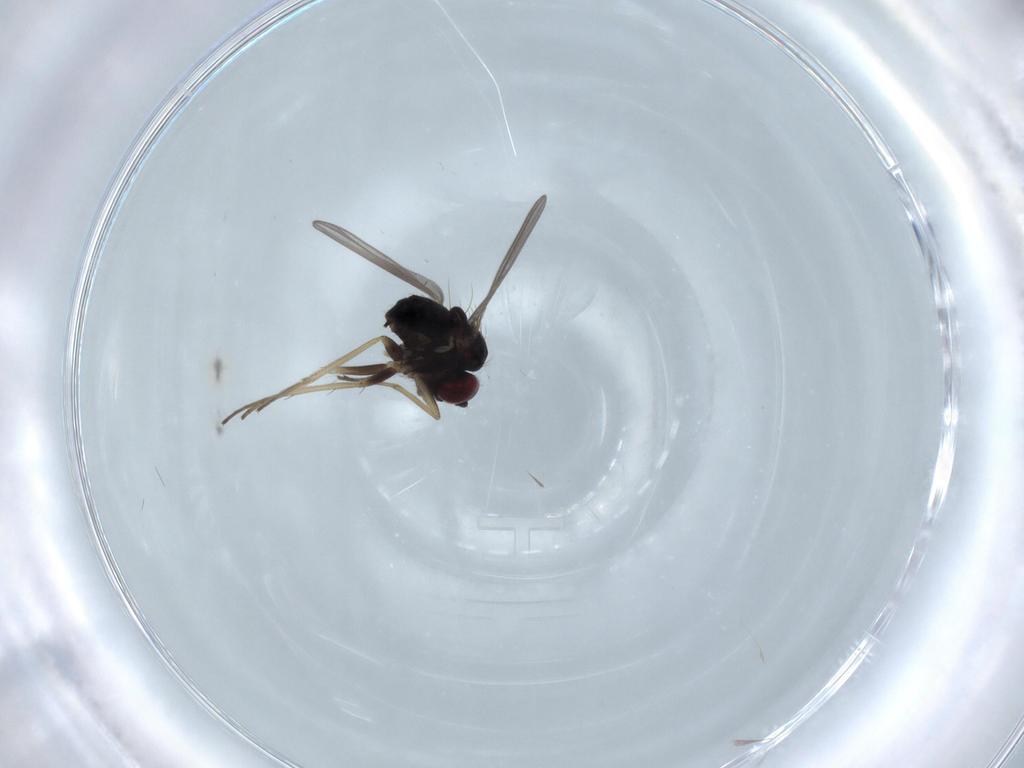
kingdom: Animalia
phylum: Arthropoda
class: Insecta
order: Diptera
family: Dolichopodidae
